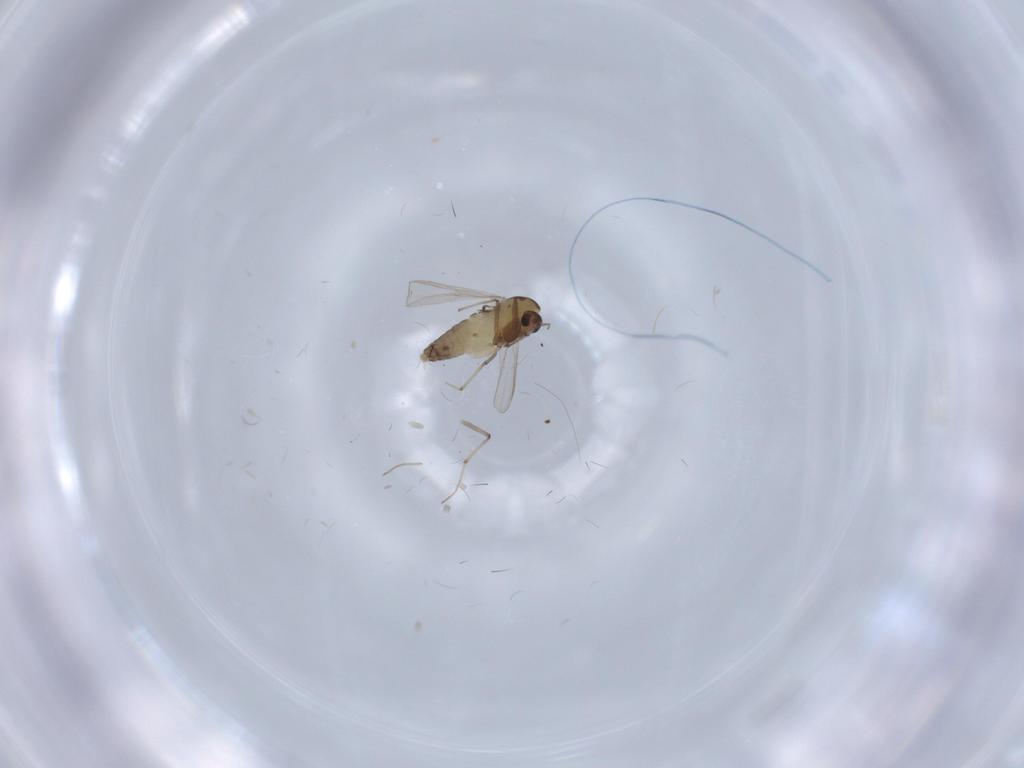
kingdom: Animalia
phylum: Arthropoda
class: Insecta
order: Diptera
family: Chironomidae
